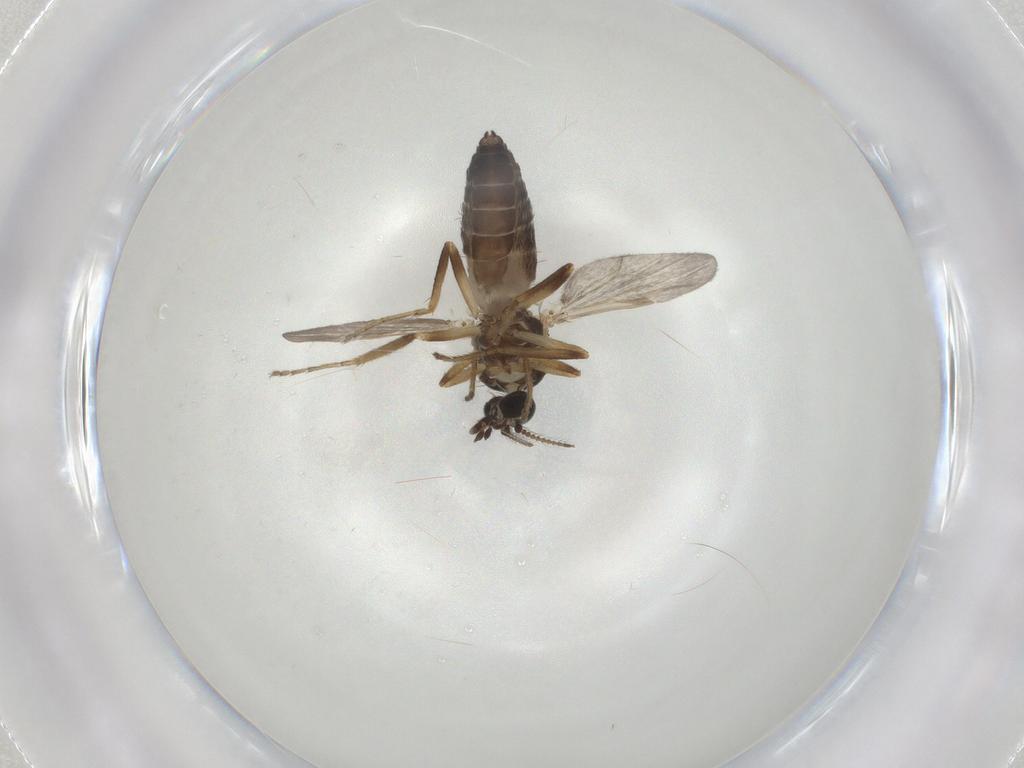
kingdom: Animalia
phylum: Arthropoda
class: Insecta
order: Diptera
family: Ceratopogonidae
